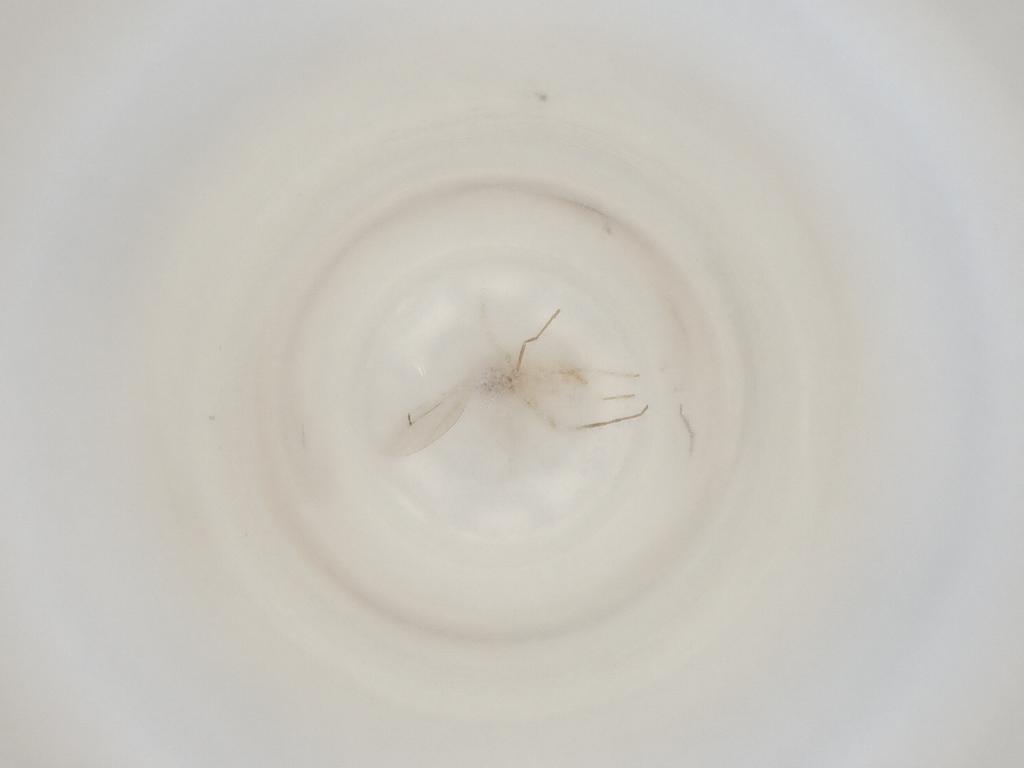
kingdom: Animalia
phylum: Arthropoda
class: Insecta
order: Diptera
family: Cecidomyiidae
